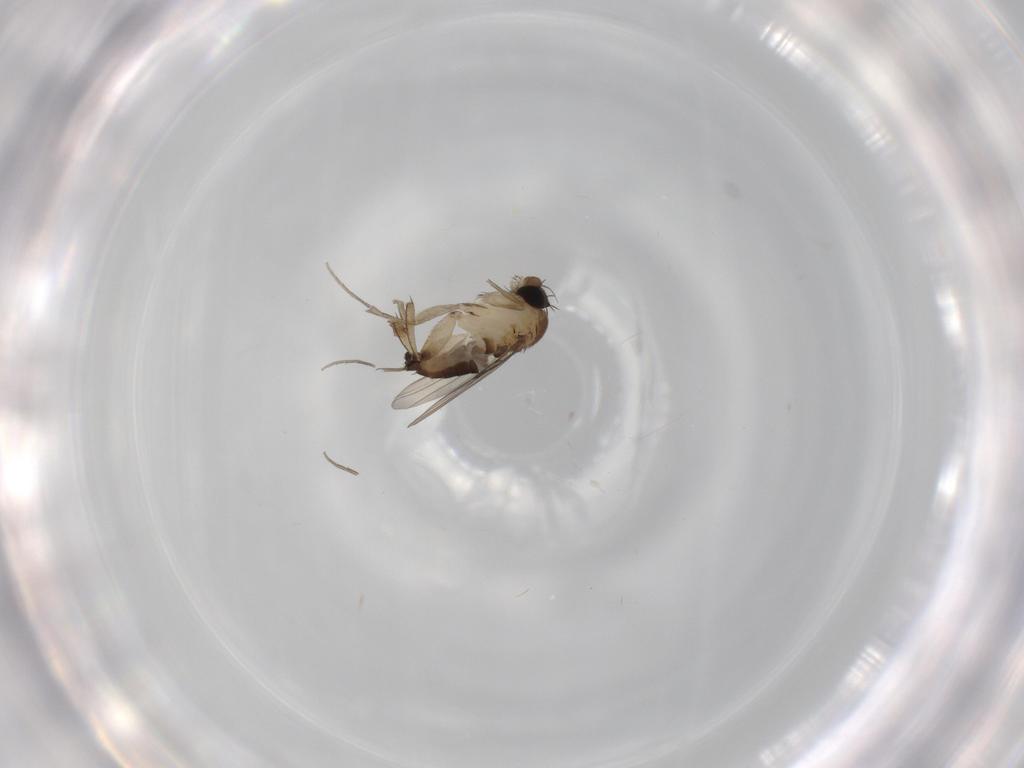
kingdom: Animalia
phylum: Arthropoda
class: Insecta
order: Diptera
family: Phoridae
